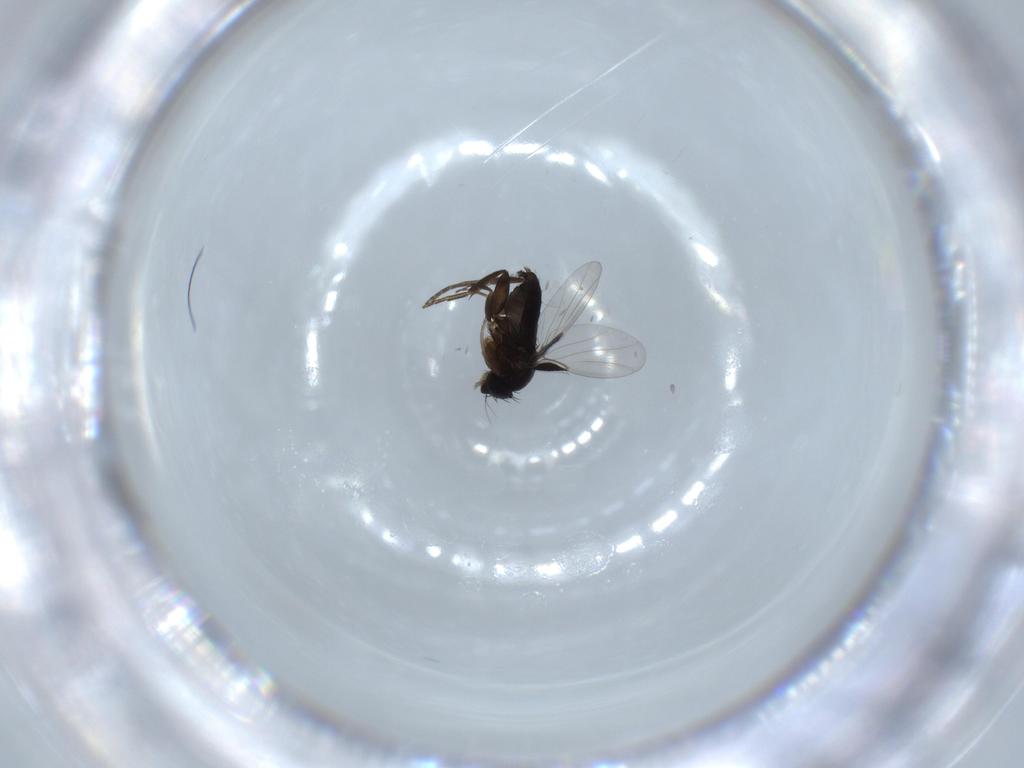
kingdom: Animalia
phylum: Arthropoda
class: Insecta
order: Diptera
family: Phoridae
